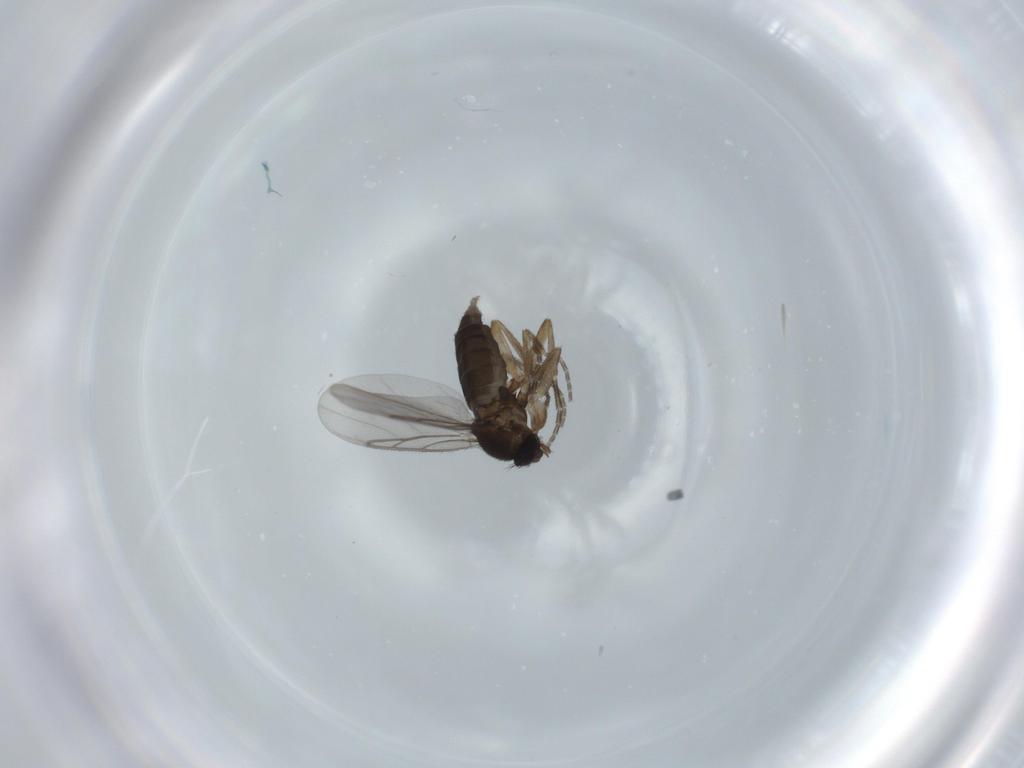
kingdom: Animalia
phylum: Arthropoda
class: Insecta
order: Diptera
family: Phoridae
